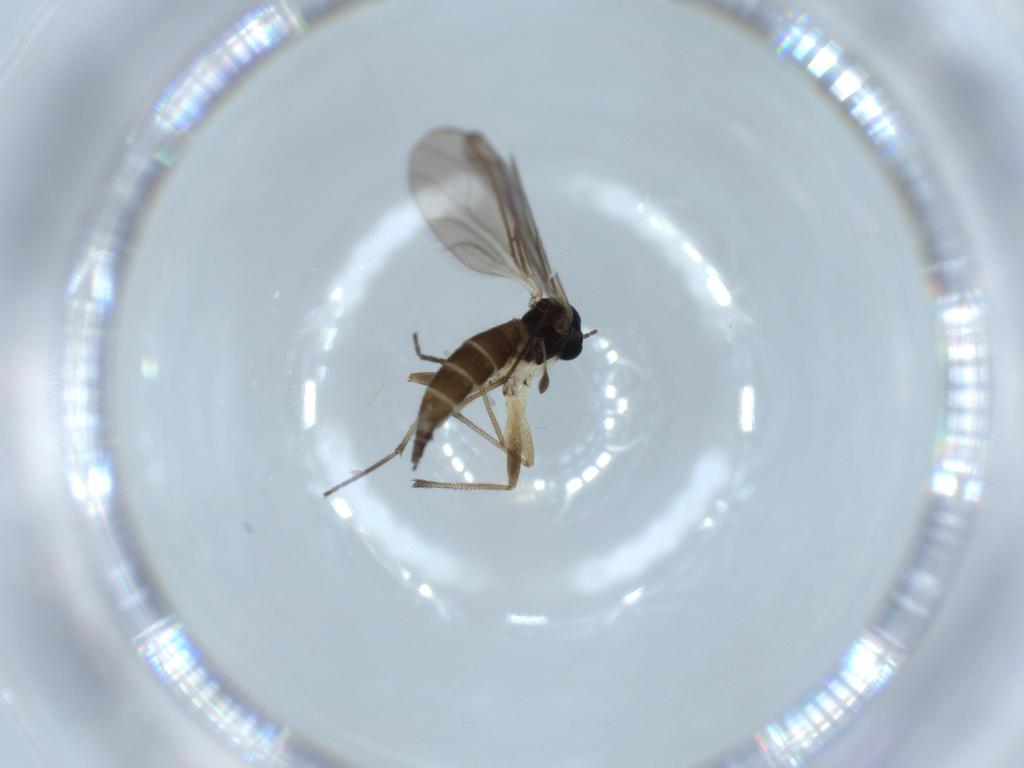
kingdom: Animalia
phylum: Arthropoda
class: Insecta
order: Diptera
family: Sciaridae
